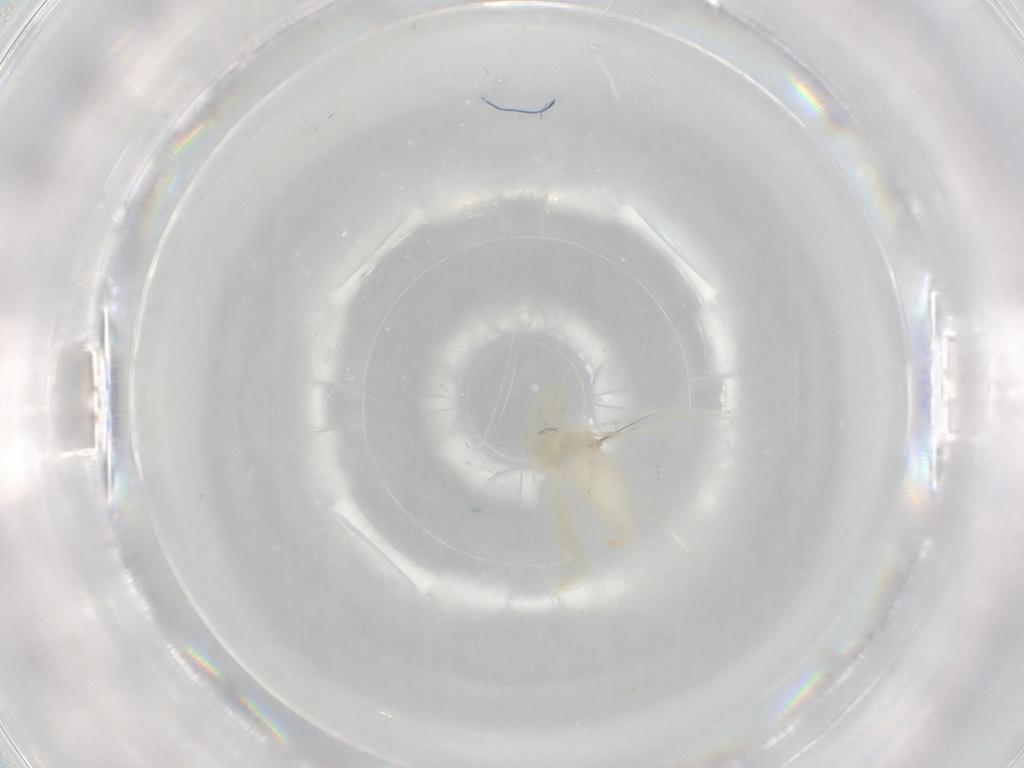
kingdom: Animalia
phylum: Arthropoda
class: Insecta
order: Diptera
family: Cecidomyiidae
